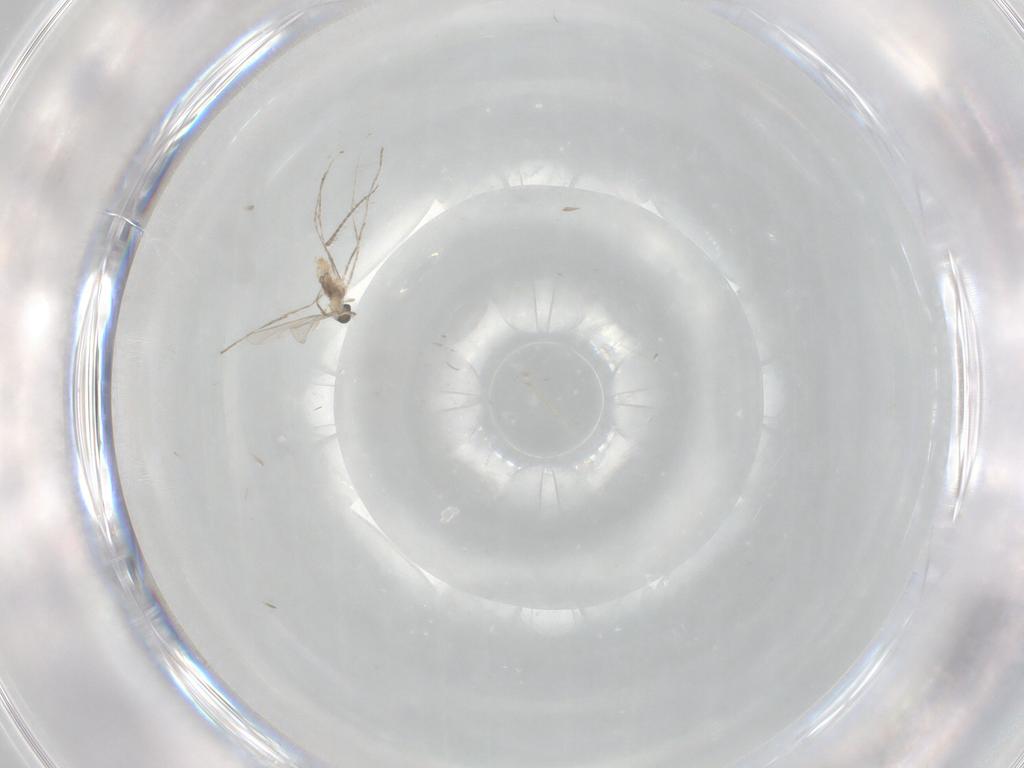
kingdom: Animalia
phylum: Arthropoda
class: Insecta
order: Diptera
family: Limoniidae
